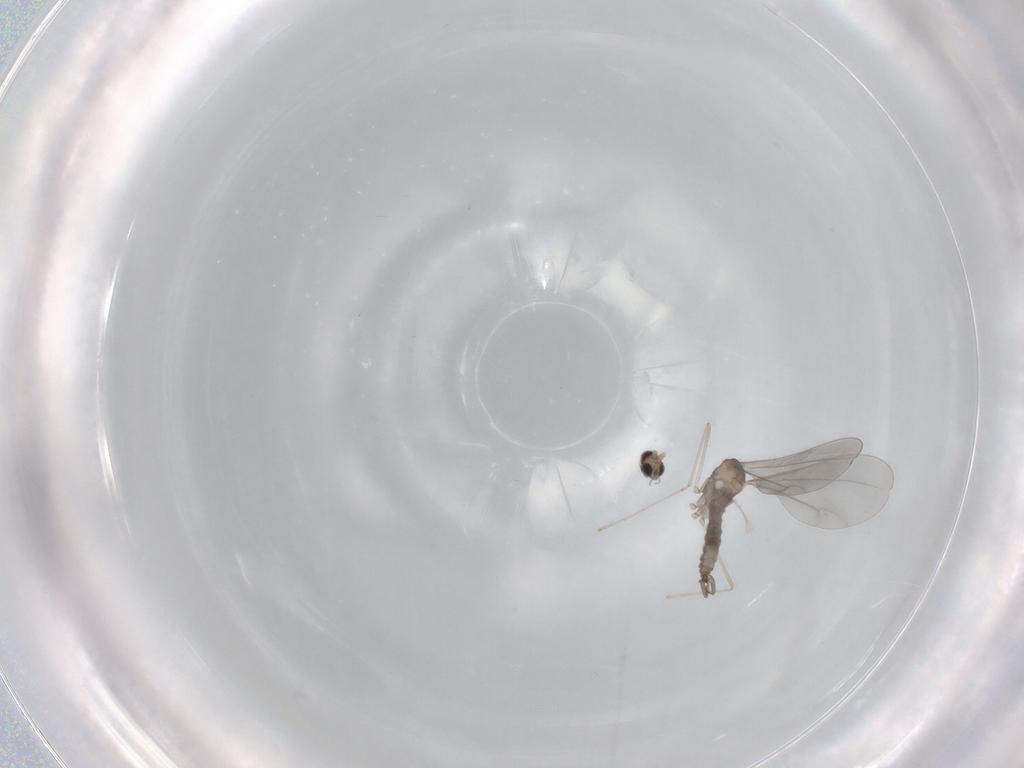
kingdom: Animalia
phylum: Arthropoda
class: Insecta
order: Diptera
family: Cecidomyiidae
